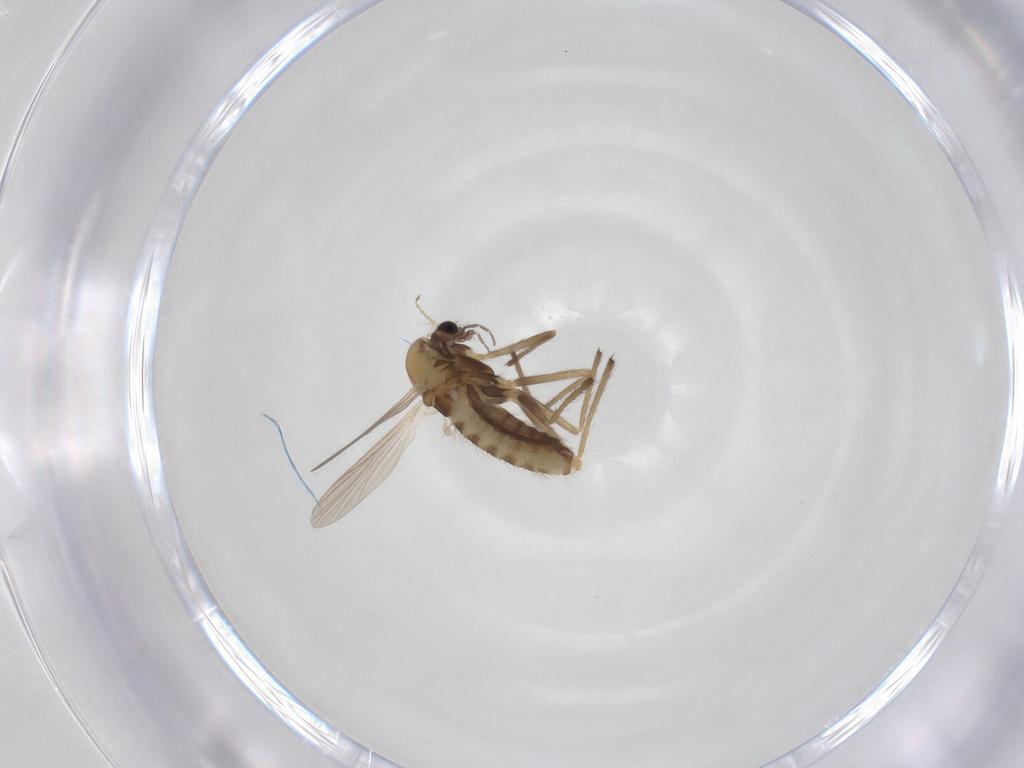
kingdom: Animalia
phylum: Arthropoda
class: Insecta
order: Diptera
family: Chironomidae
